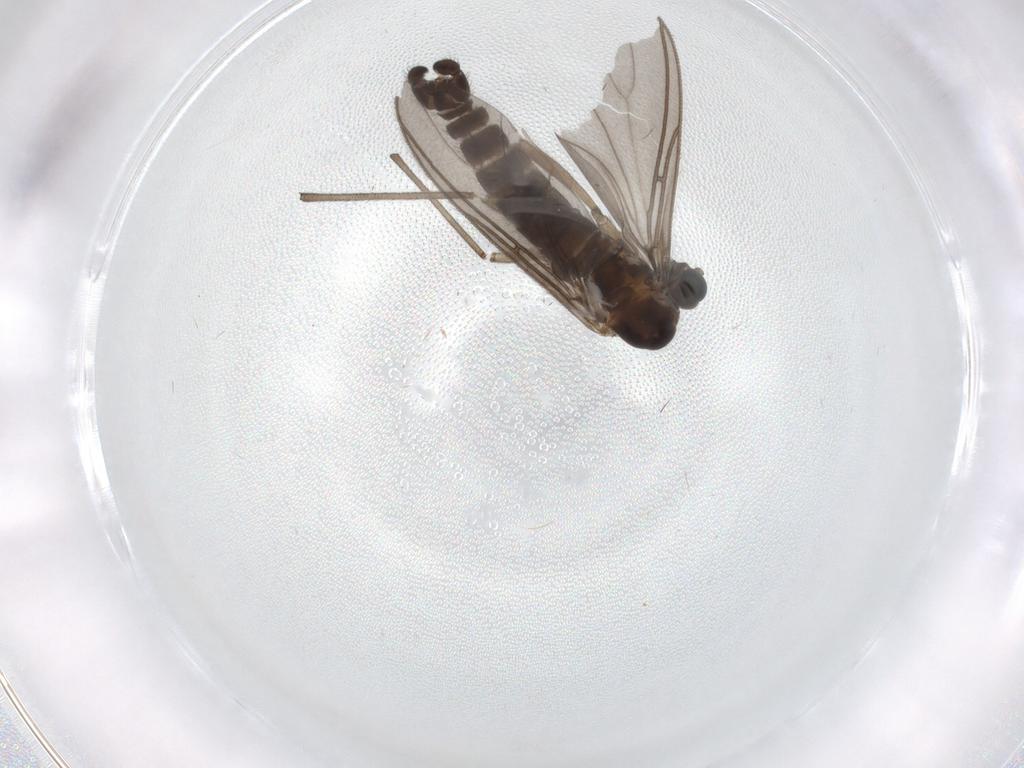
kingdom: Animalia
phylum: Arthropoda
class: Insecta
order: Diptera
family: Sciaridae
